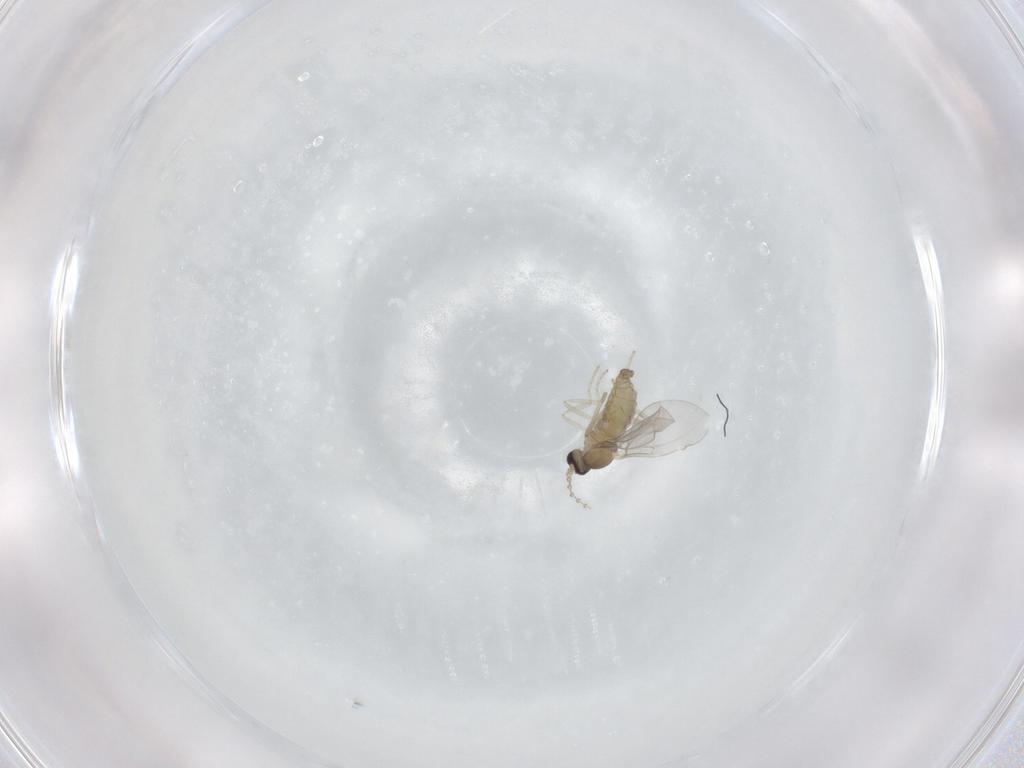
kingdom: Animalia
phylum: Arthropoda
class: Insecta
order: Diptera
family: Cecidomyiidae
